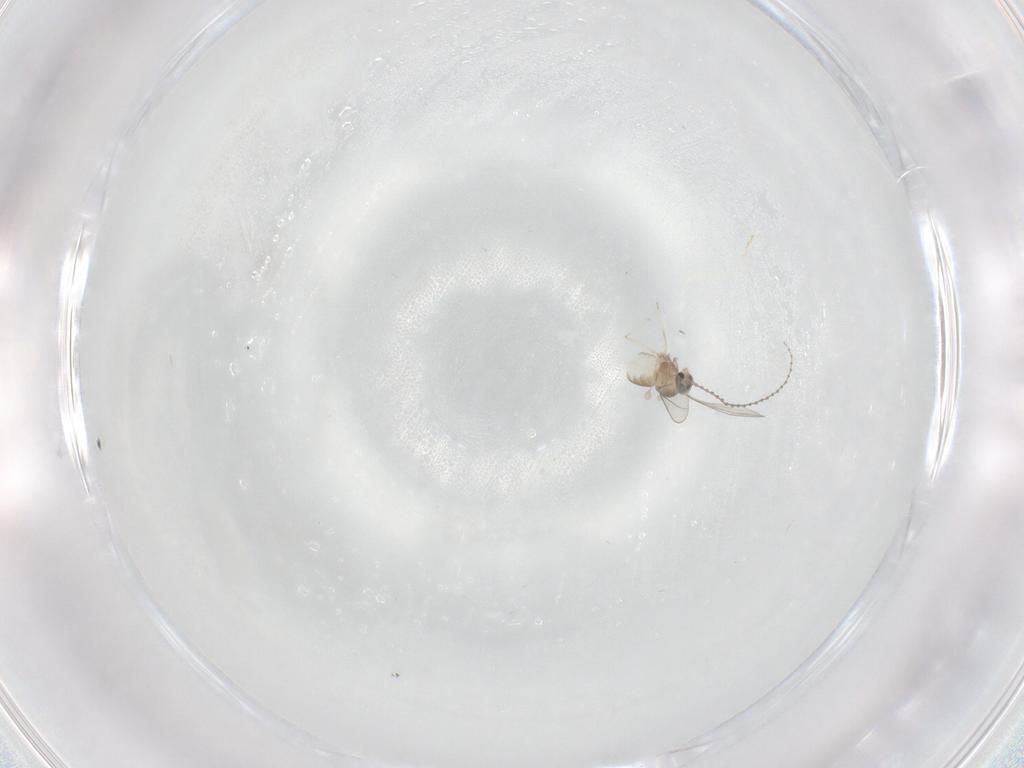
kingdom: Animalia
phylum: Arthropoda
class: Insecta
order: Diptera
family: Cecidomyiidae
